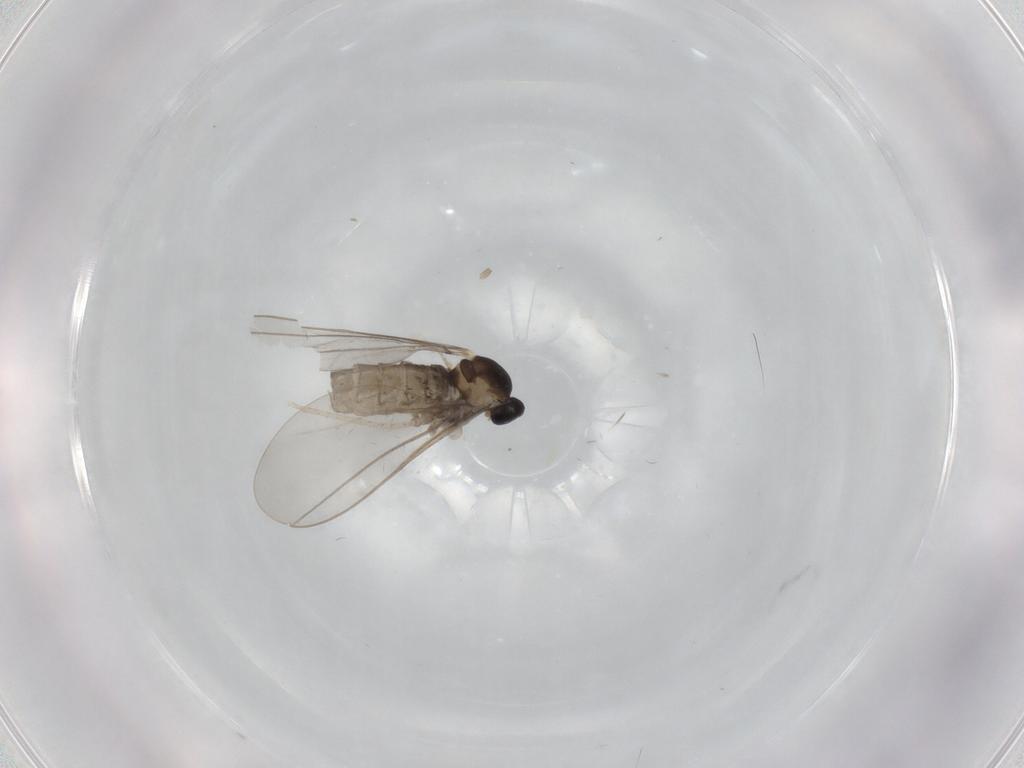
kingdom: Animalia
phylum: Arthropoda
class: Insecta
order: Diptera
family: Cecidomyiidae
